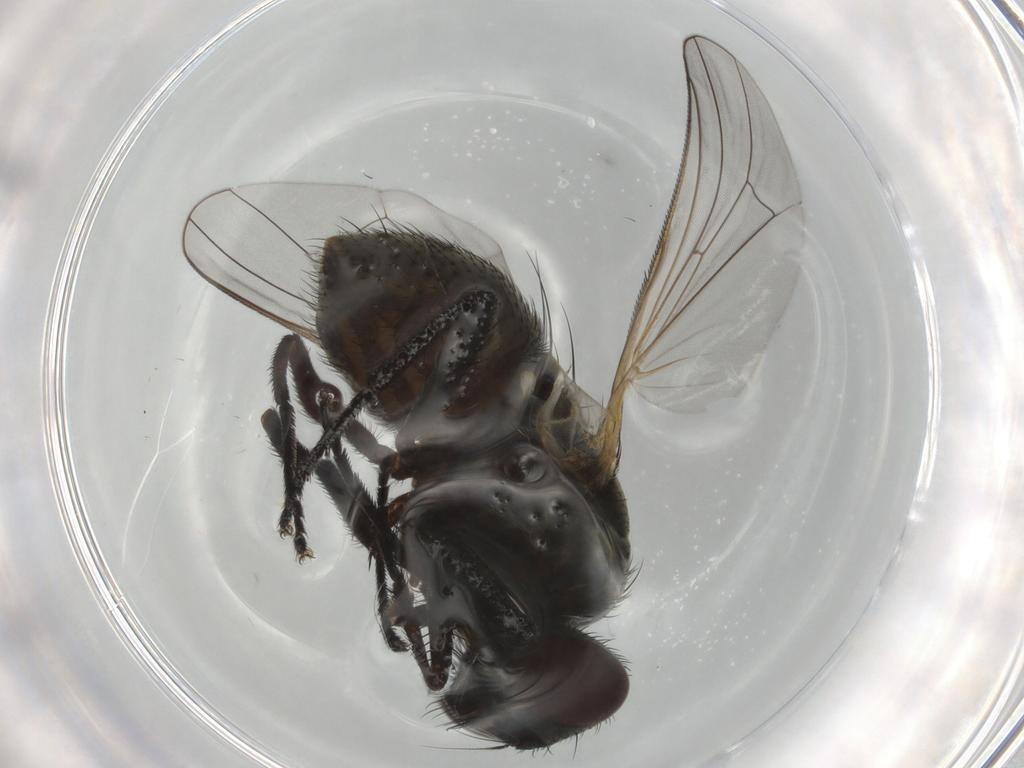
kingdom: Animalia
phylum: Arthropoda
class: Insecta
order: Diptera
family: Muscidae
